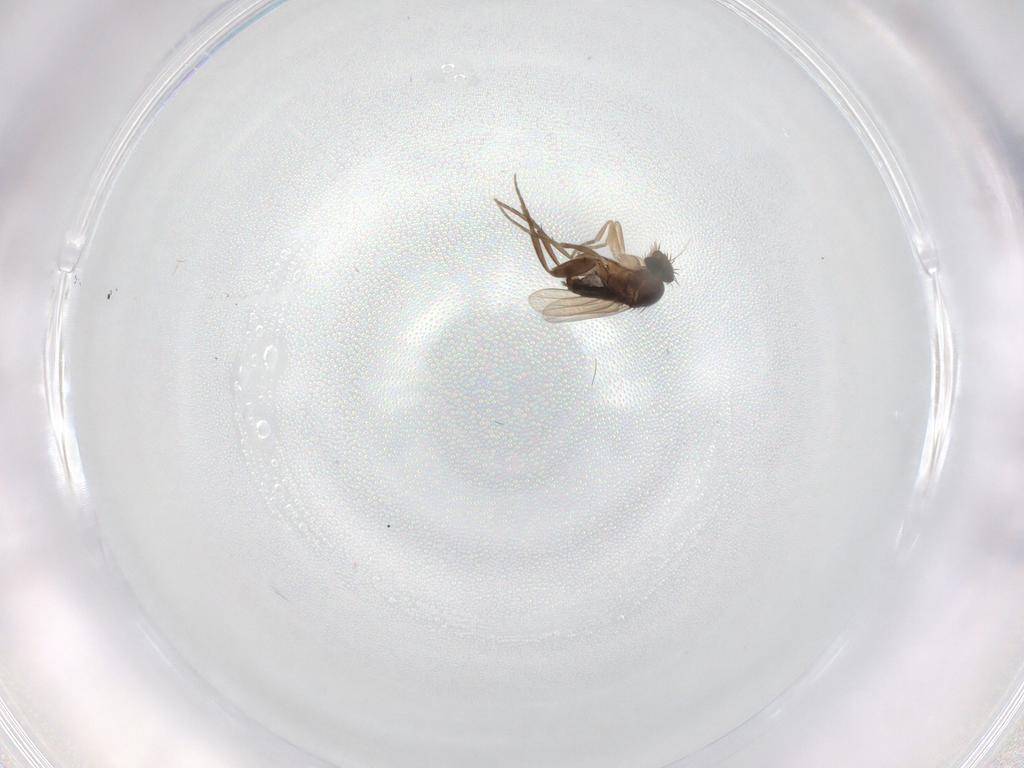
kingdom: Animalia
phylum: Arthropoda
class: Insecta
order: Diptera
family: Phoridae
